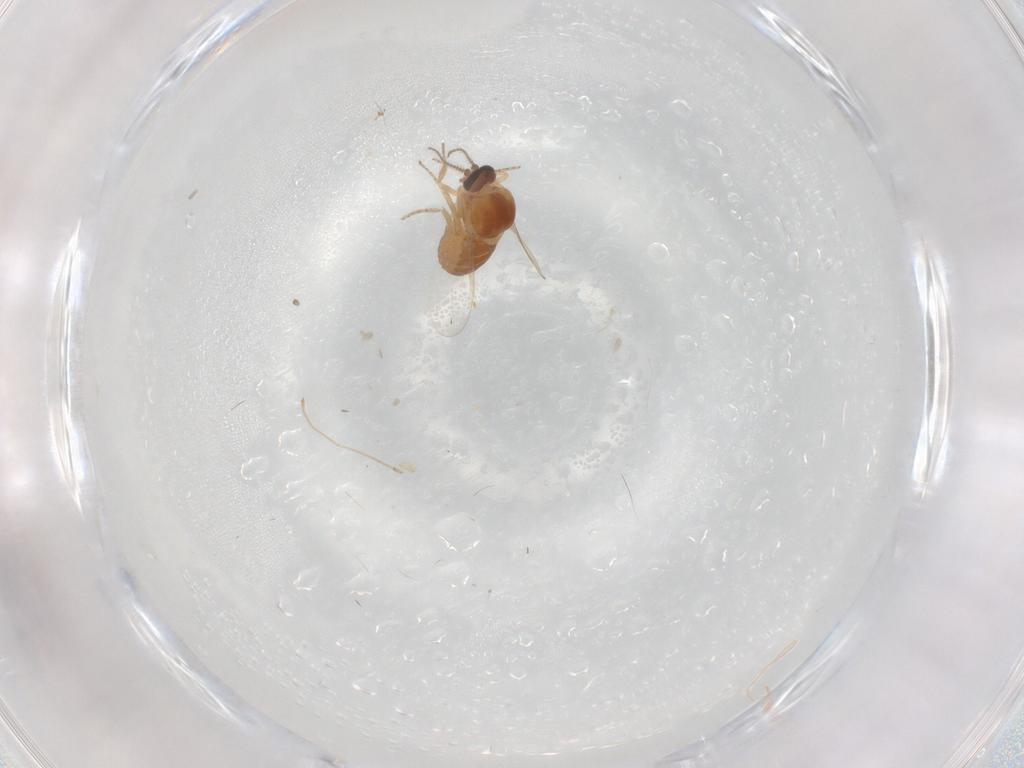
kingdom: Animalia
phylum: Arthropoda
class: Insecta
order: Diptera
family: Ceratopogonidae
